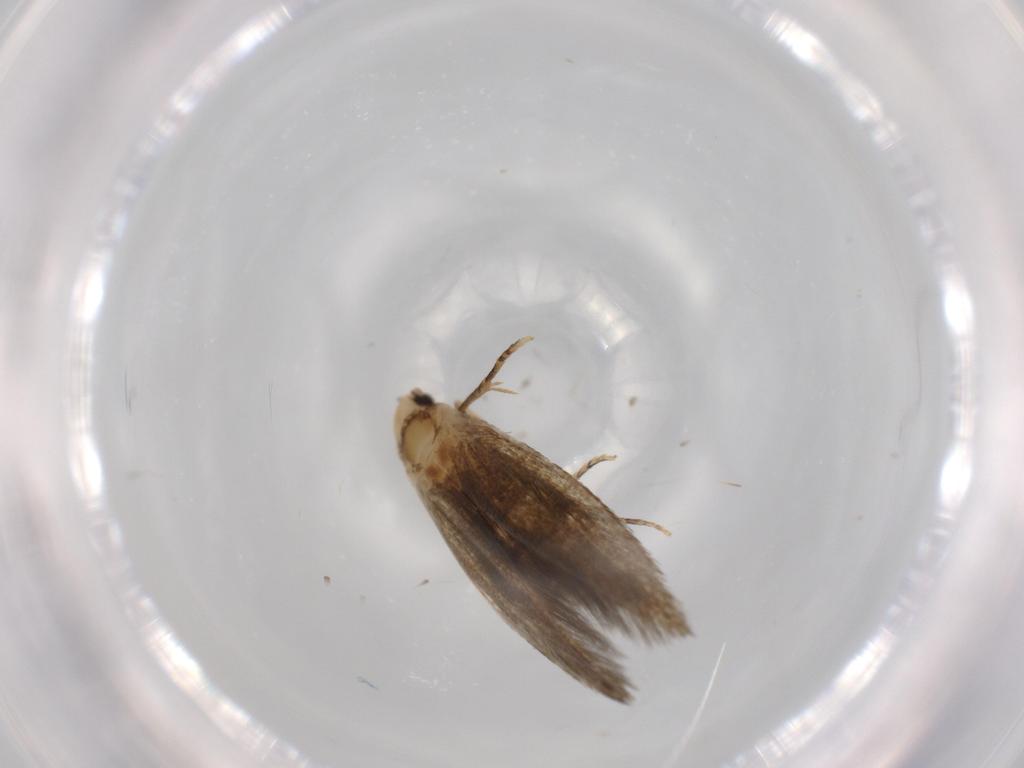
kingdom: Animalia
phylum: Arthropoda
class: Insecta
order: Lepidoptera
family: Tineidae
